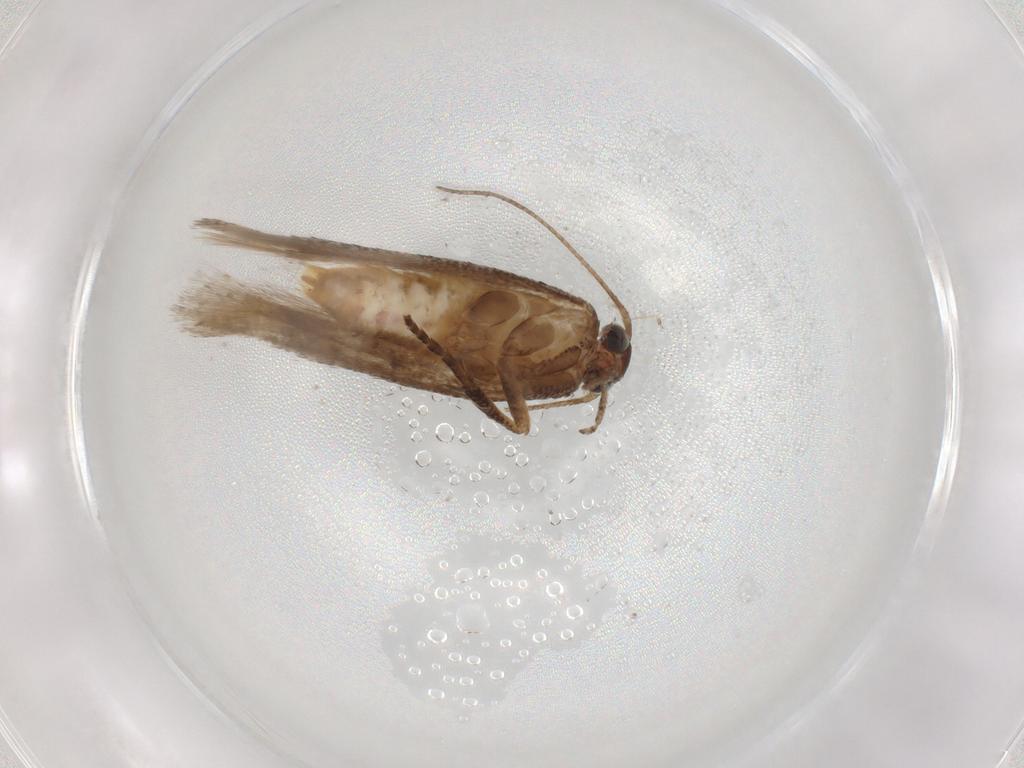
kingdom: Animalia
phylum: Arthropoda
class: Insecta
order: Lepidoptera
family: Gelechiidae
